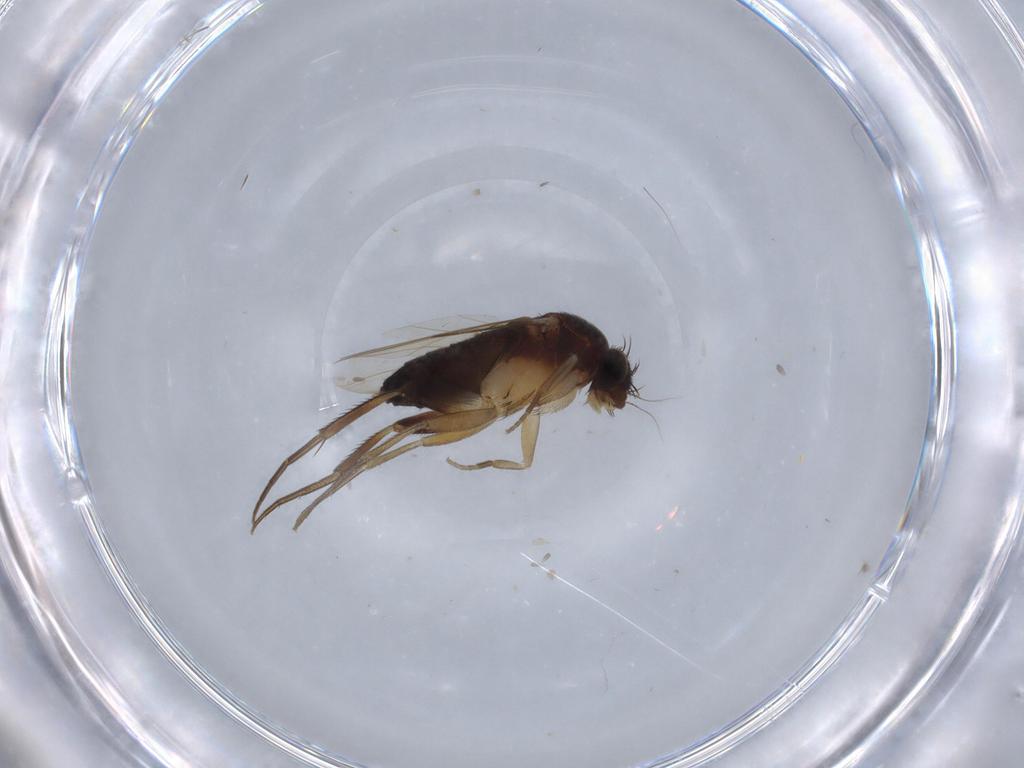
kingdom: Animalia
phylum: Arthropoda
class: Insecta
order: Diptera
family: Phoridae
